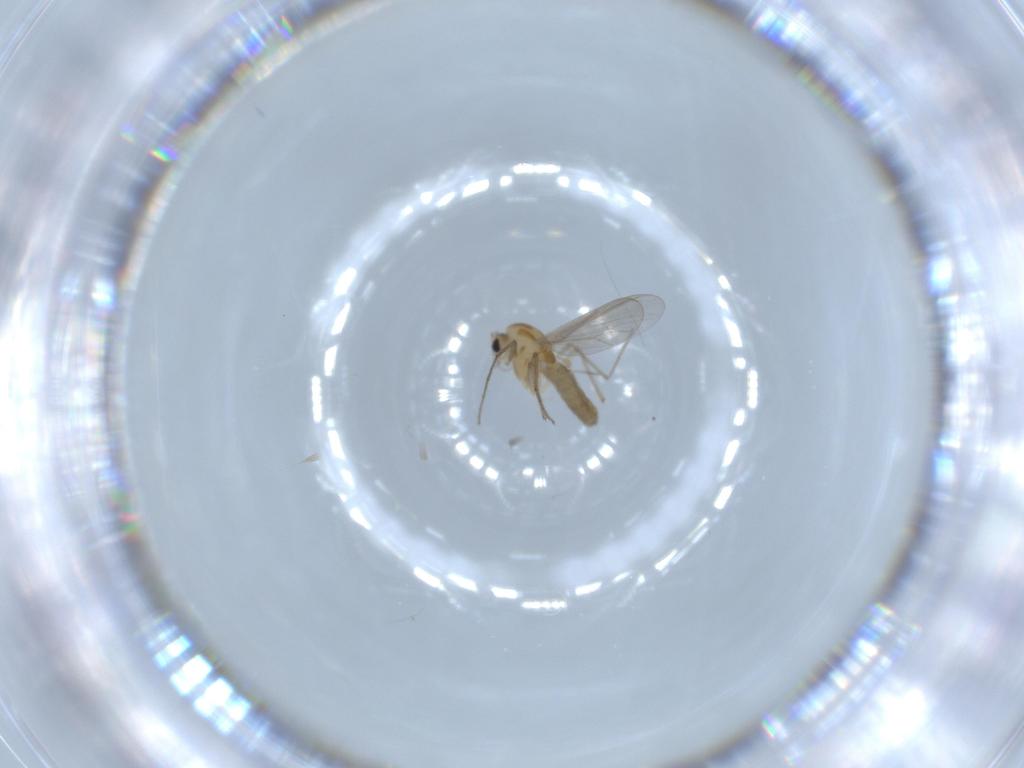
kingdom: Animalia
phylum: Arthropoda
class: Insecta
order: Diptera
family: Chironomidae
